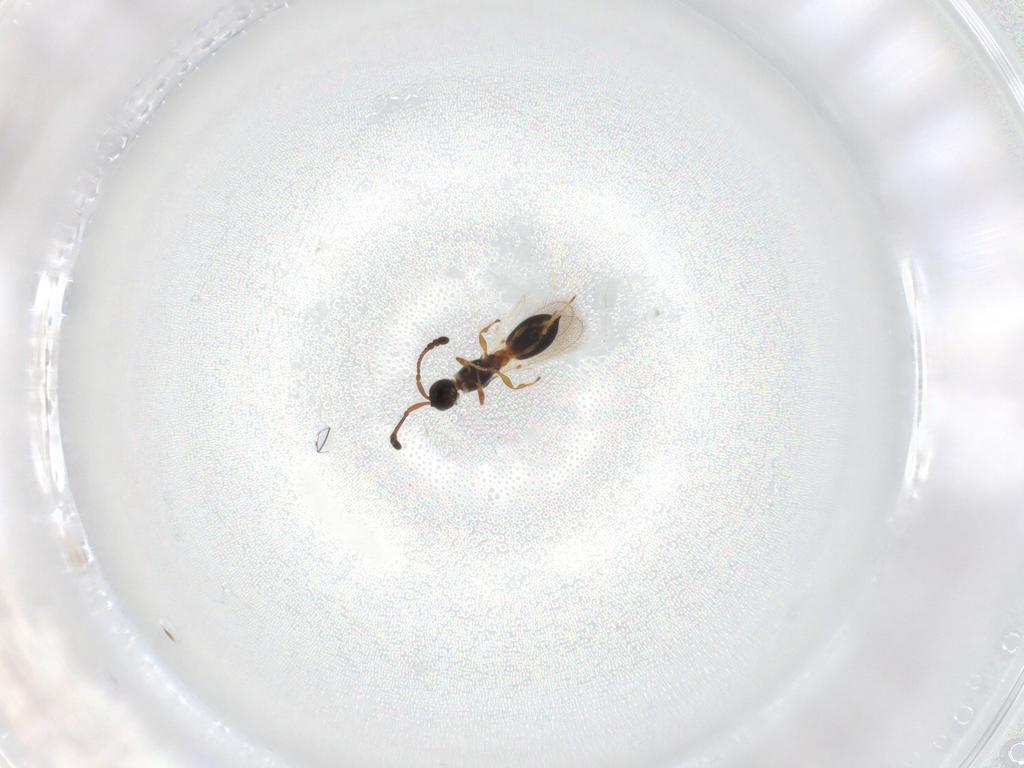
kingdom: Animalia
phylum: Arthropoda
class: Insecta
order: Hymenoptera
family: Diapriidae
